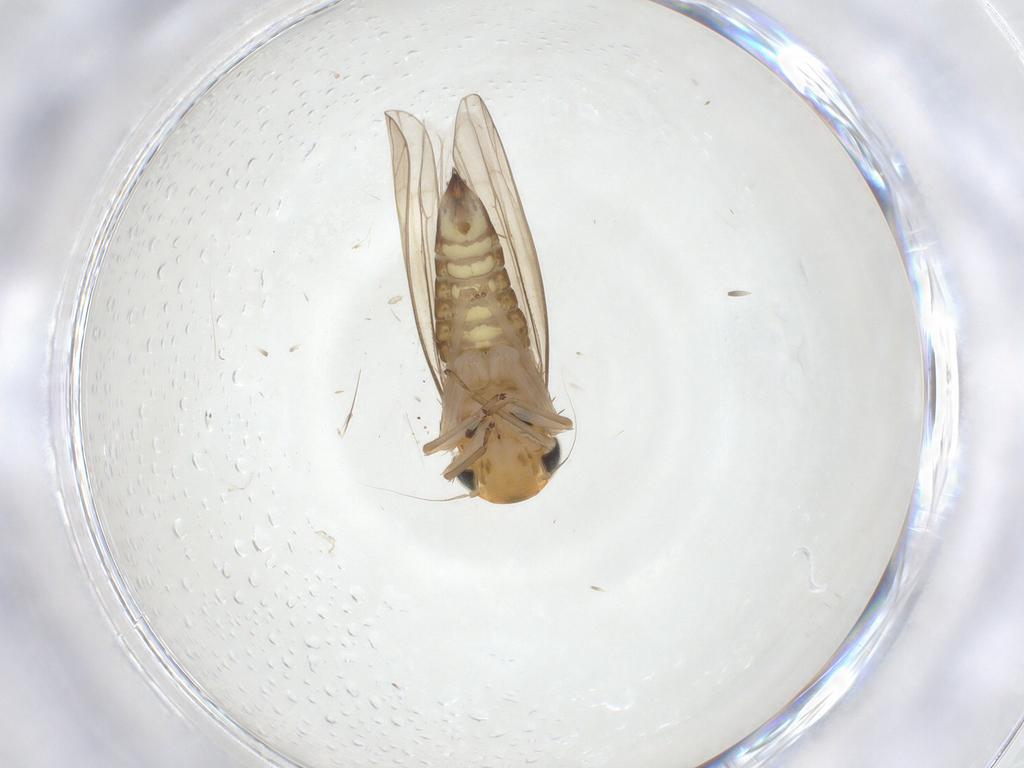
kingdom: Animalia
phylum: Arthropoda
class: Insecta
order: Hemiptera
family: Cicadellidae
